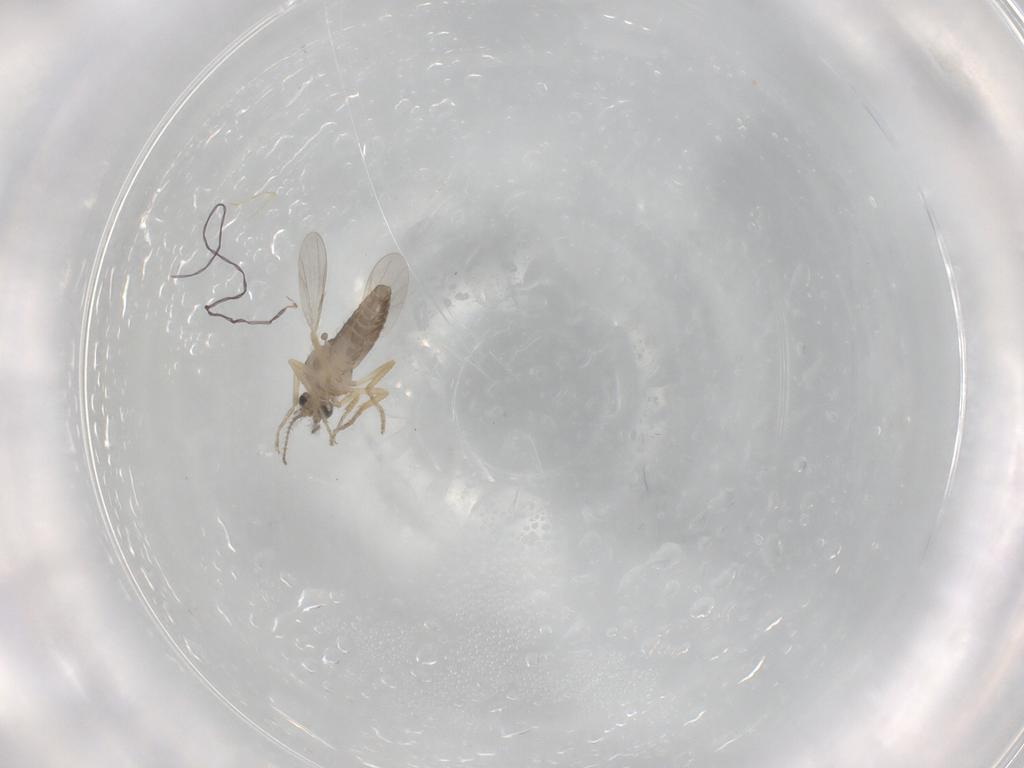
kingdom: Animalia
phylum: Arthropoda
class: Insecta
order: Diptera
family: Ceratopogonidae
